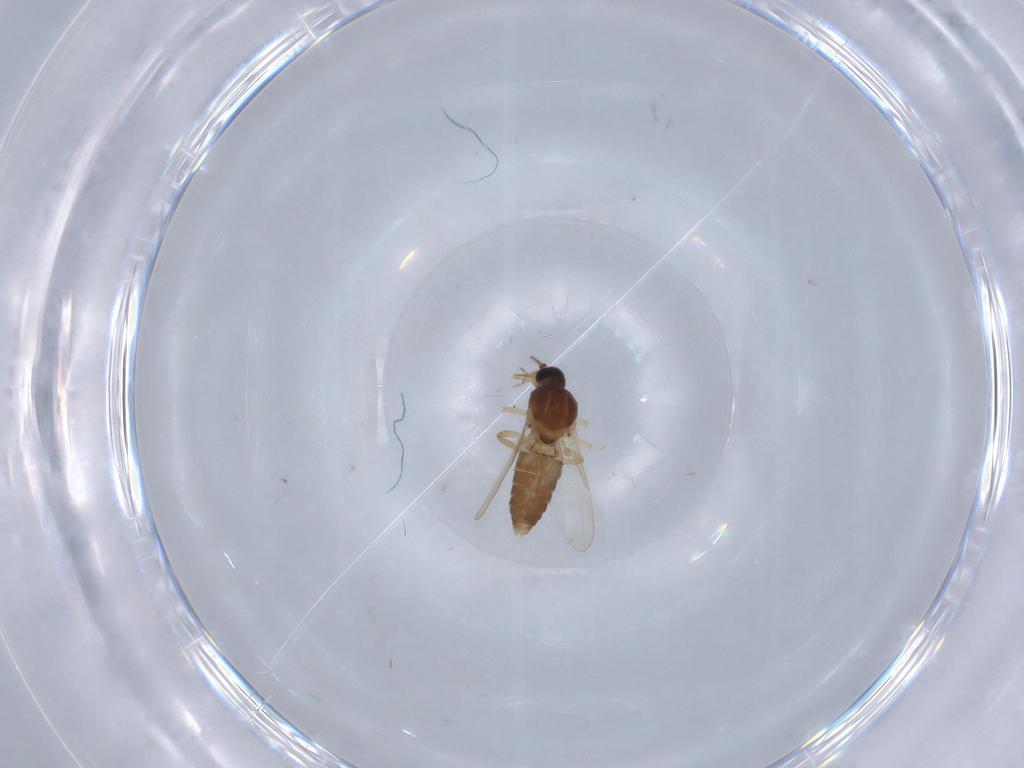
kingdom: Animalia
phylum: Arthropoda
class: Insecta
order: Diptera
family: Ceratopogonidae
